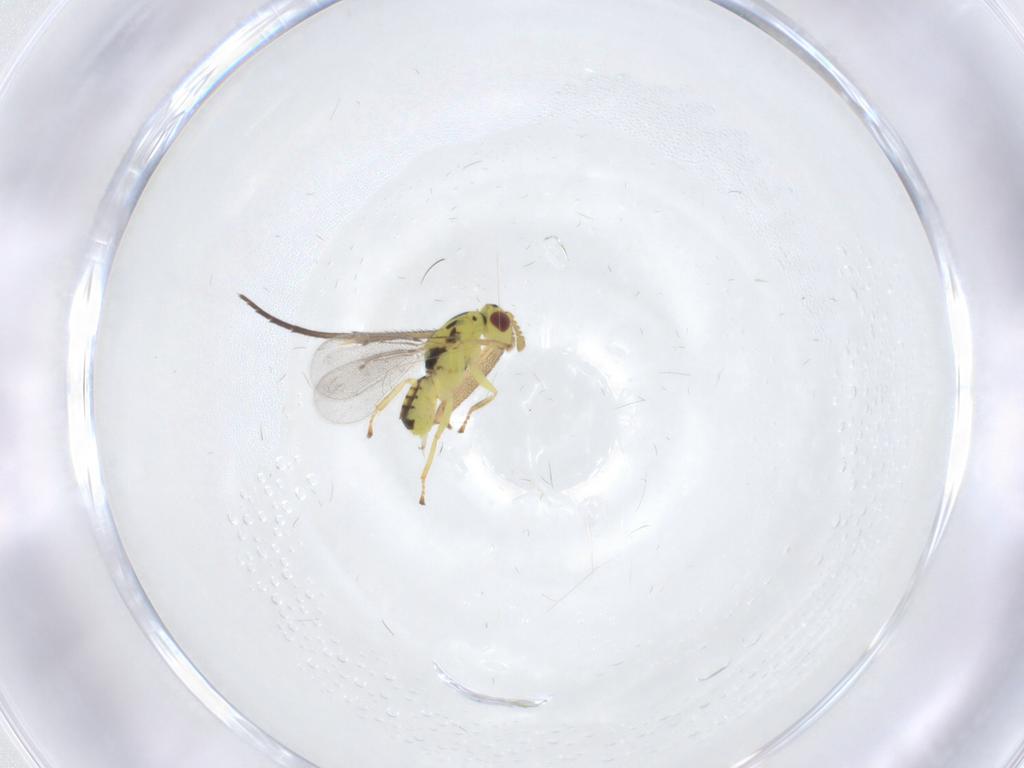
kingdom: Animalia
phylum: Arthropoda
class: Insecta
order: Hymenoptera
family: Eulophidae
